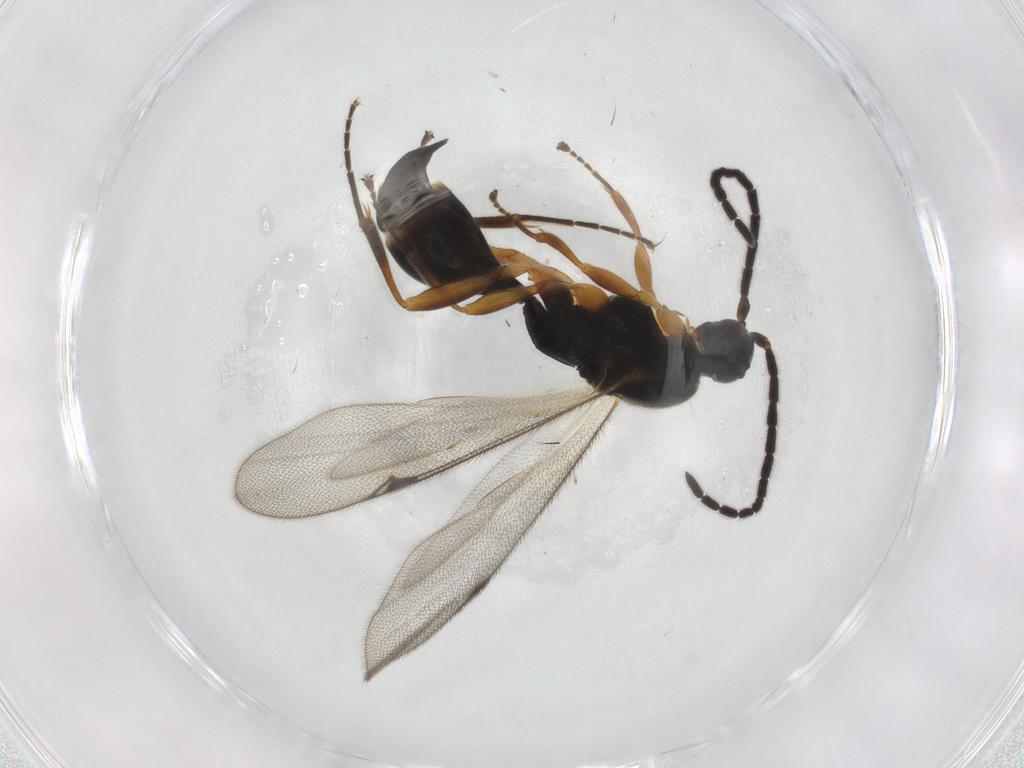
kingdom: Animalia
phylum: Arthropoda
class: Insecta
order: Hymenoptera
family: Proctotrupidae
